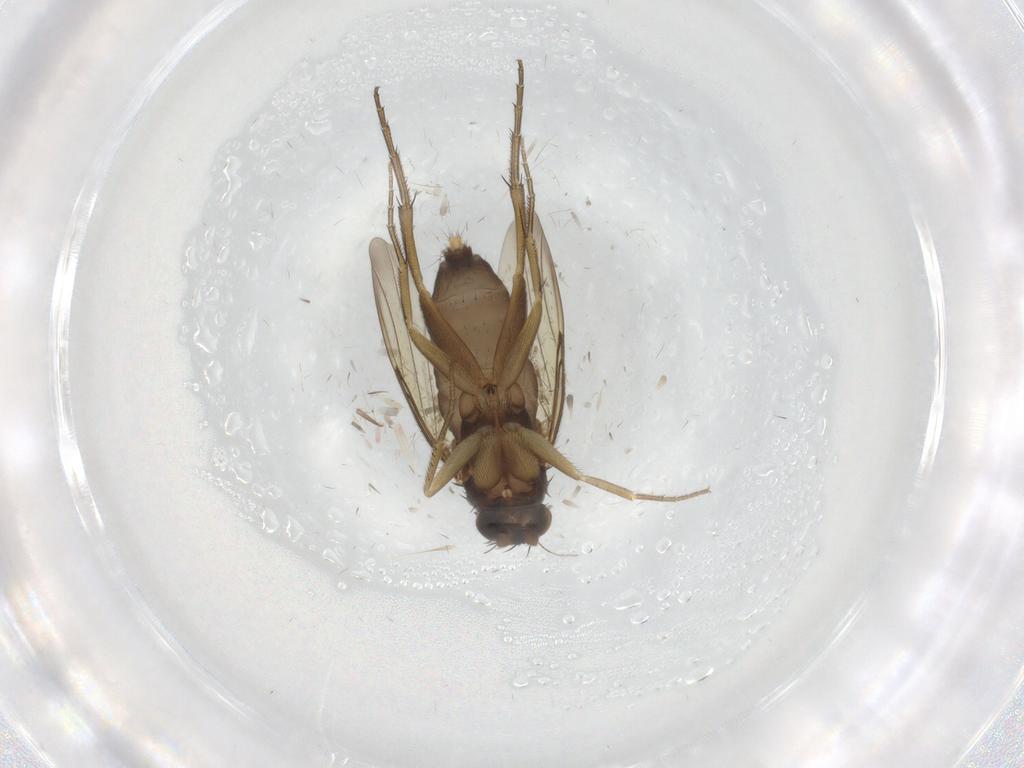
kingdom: Animalia
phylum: Arthropoda
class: Insecta
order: Diptera
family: Phoridae
